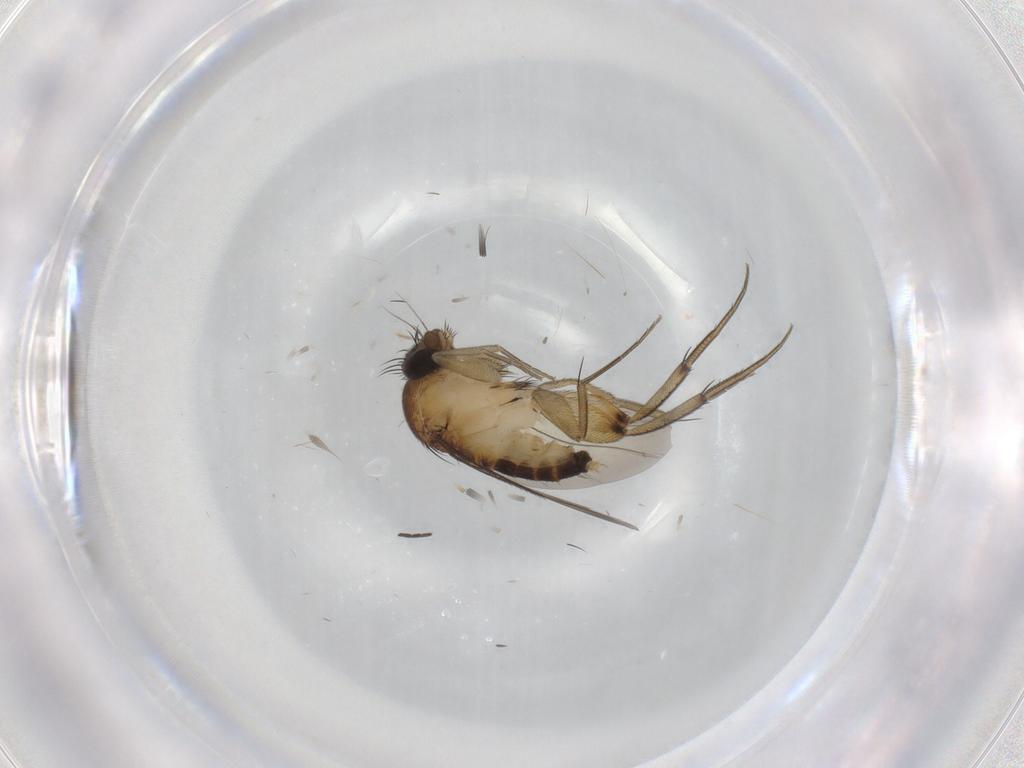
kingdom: Animalia
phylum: Arthropoda
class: Insecta
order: Diptera
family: Phoridae
